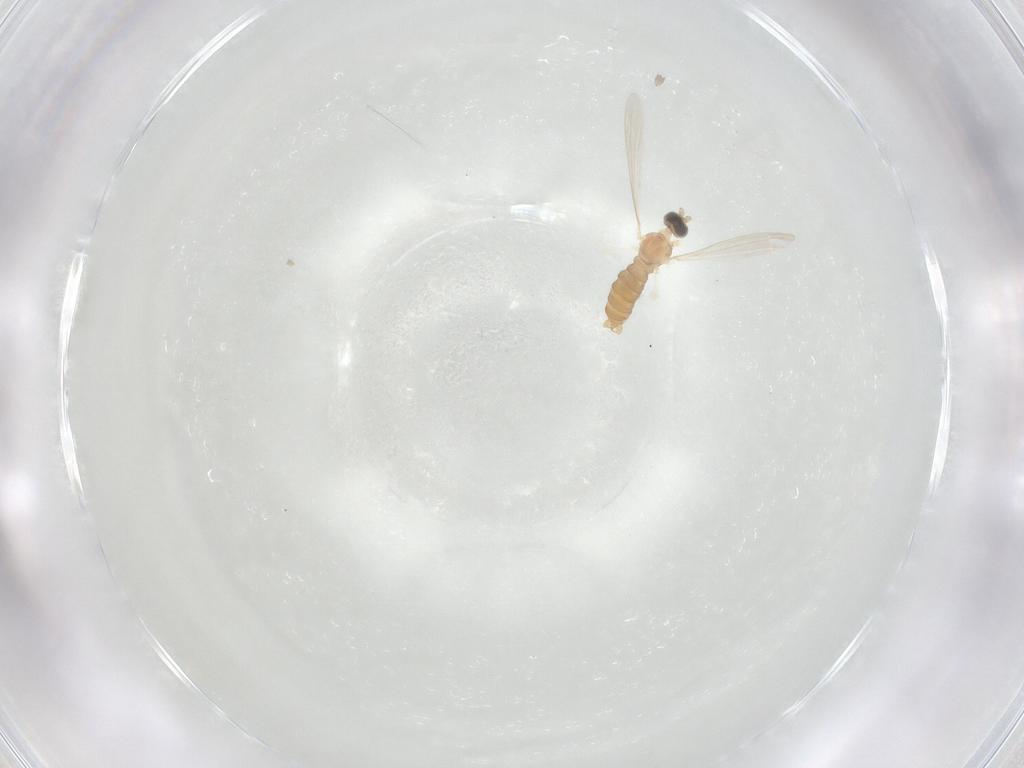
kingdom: Animalia
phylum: Arthropoda
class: Insecta
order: Diptera
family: Cecidomyiidae
